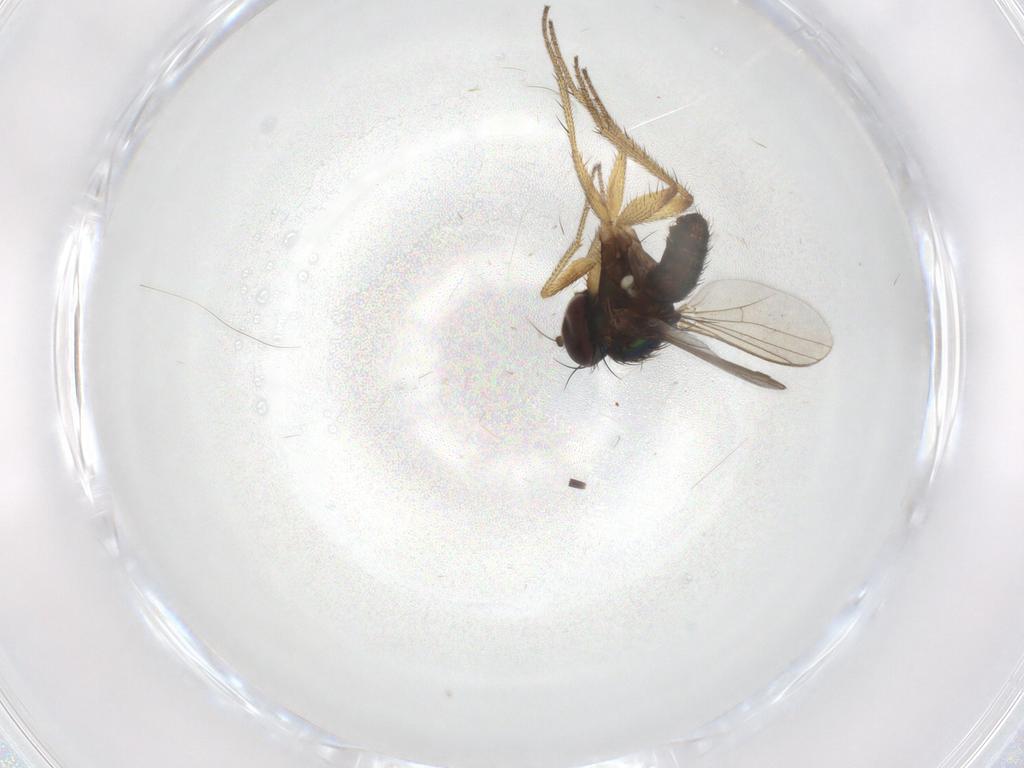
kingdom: Animalia
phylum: Arthropoda
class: Insecta
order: Diptera
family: Dolichopodidae
